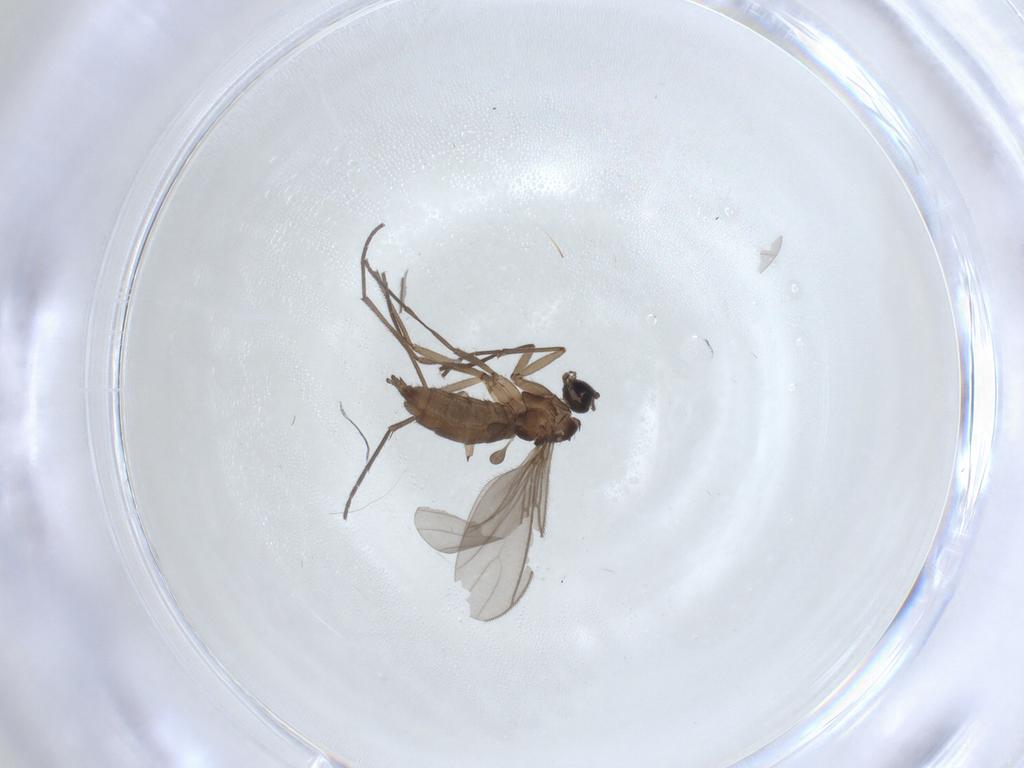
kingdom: Animalia
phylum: Arthropoda
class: Insecta
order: Diptera
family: Sciaridae
